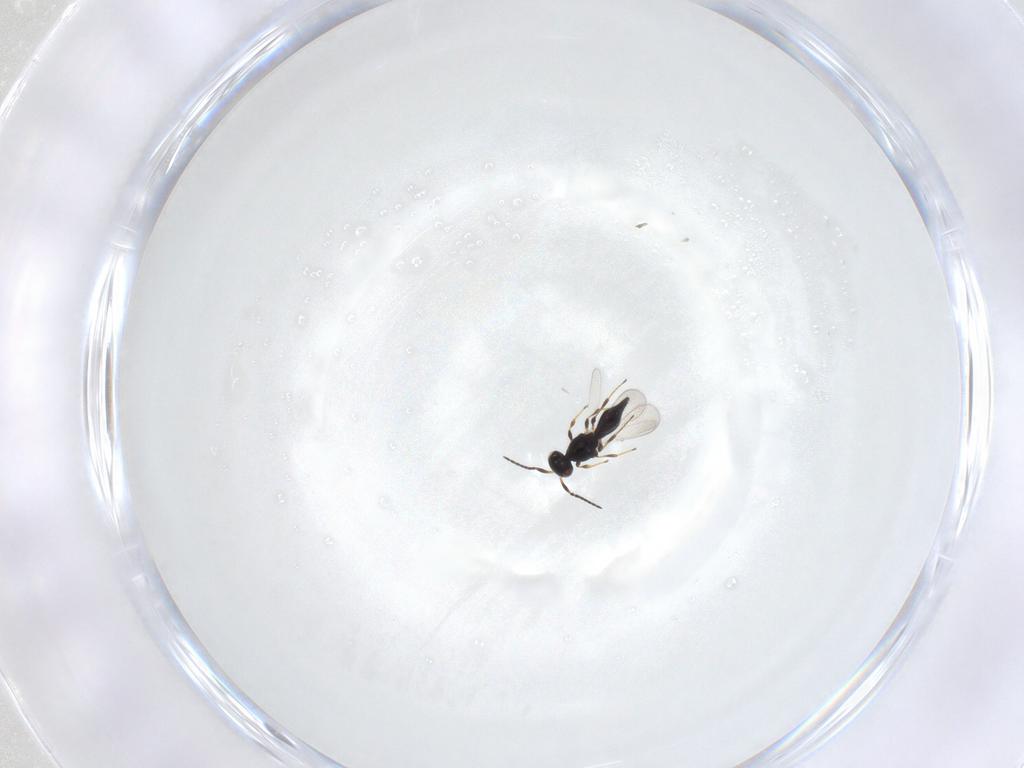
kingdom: Animalia
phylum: Arthropoda
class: Insecta
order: Hymenoptera
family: Platygastridae
